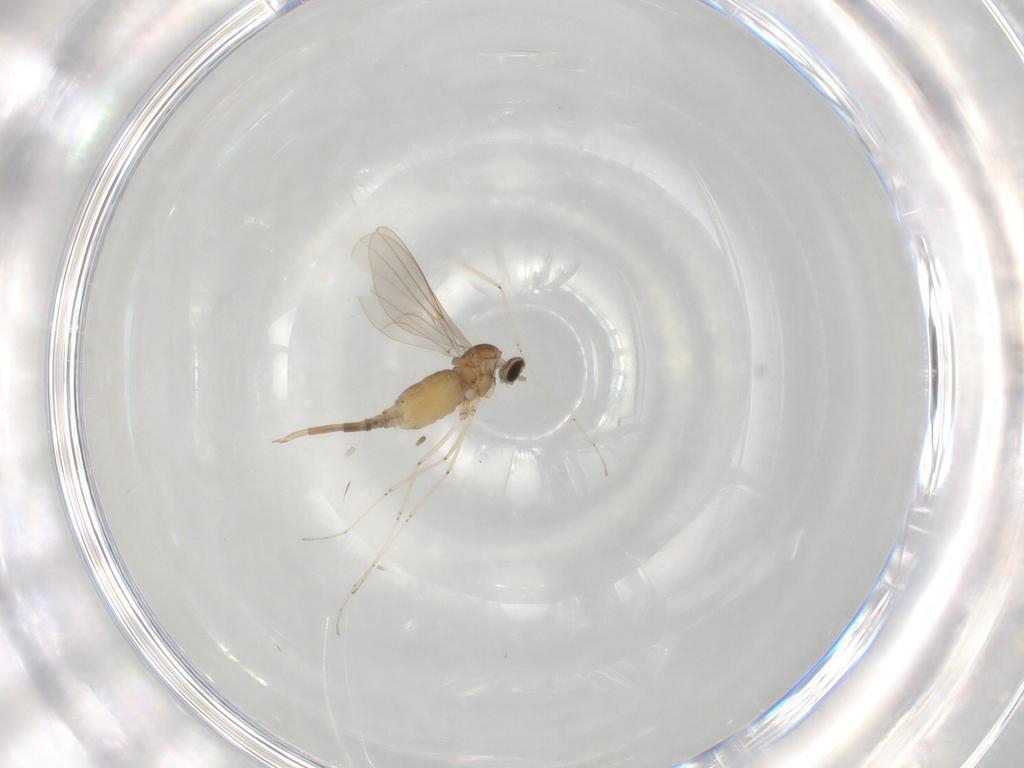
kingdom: Animalia
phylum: Arthropoda
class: Insecta
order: Diptera
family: Cecidomyiidae
